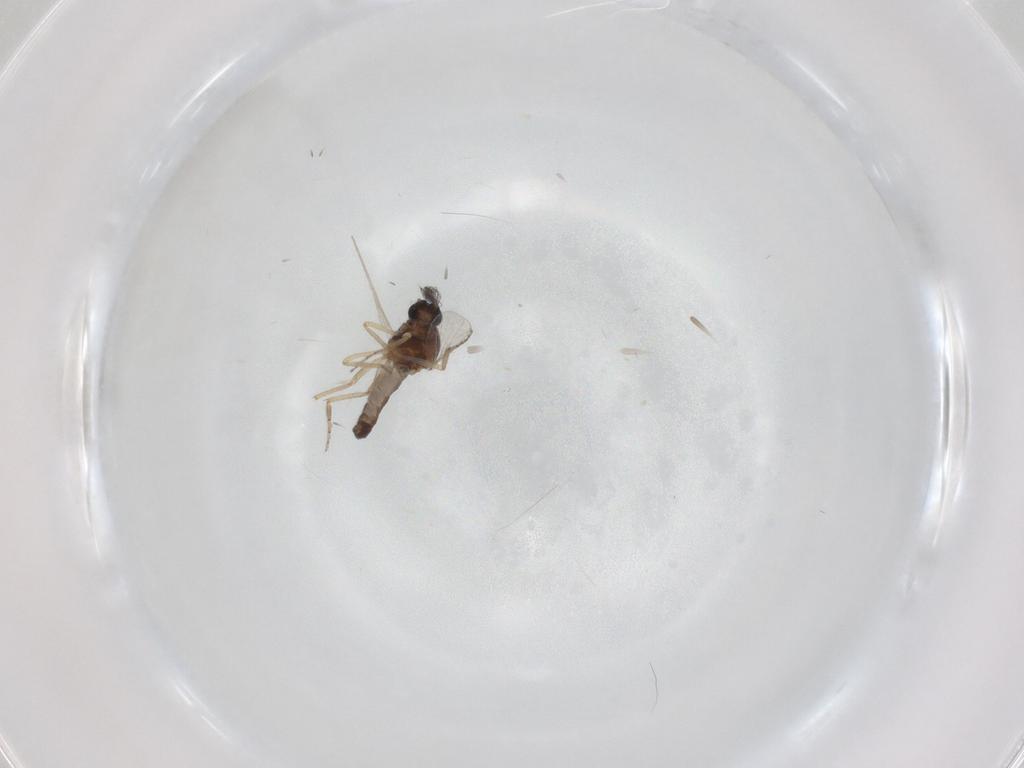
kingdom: Animalia
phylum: Arthropoda
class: Insecta
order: Diptera
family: Ceratopogonidae
